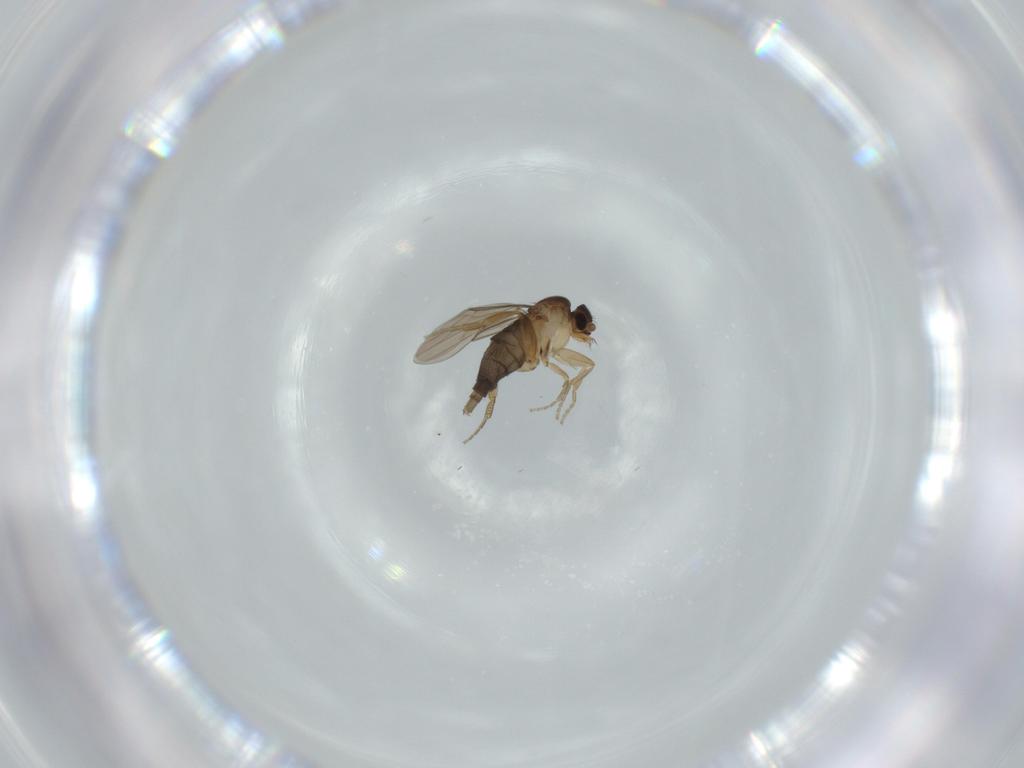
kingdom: Animalia
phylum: Arthropoda
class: Insecta
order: Diptera
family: Phoridae
